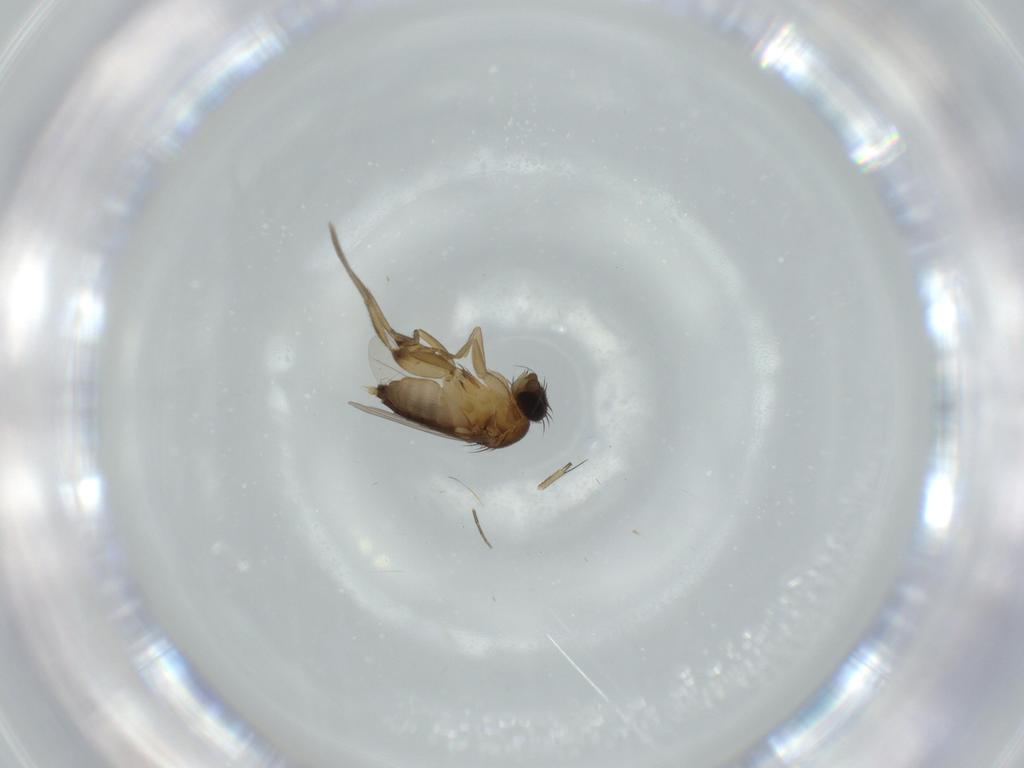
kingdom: Animalia
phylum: Arthropoda
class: Insecta
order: Diptera
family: Phoridae
